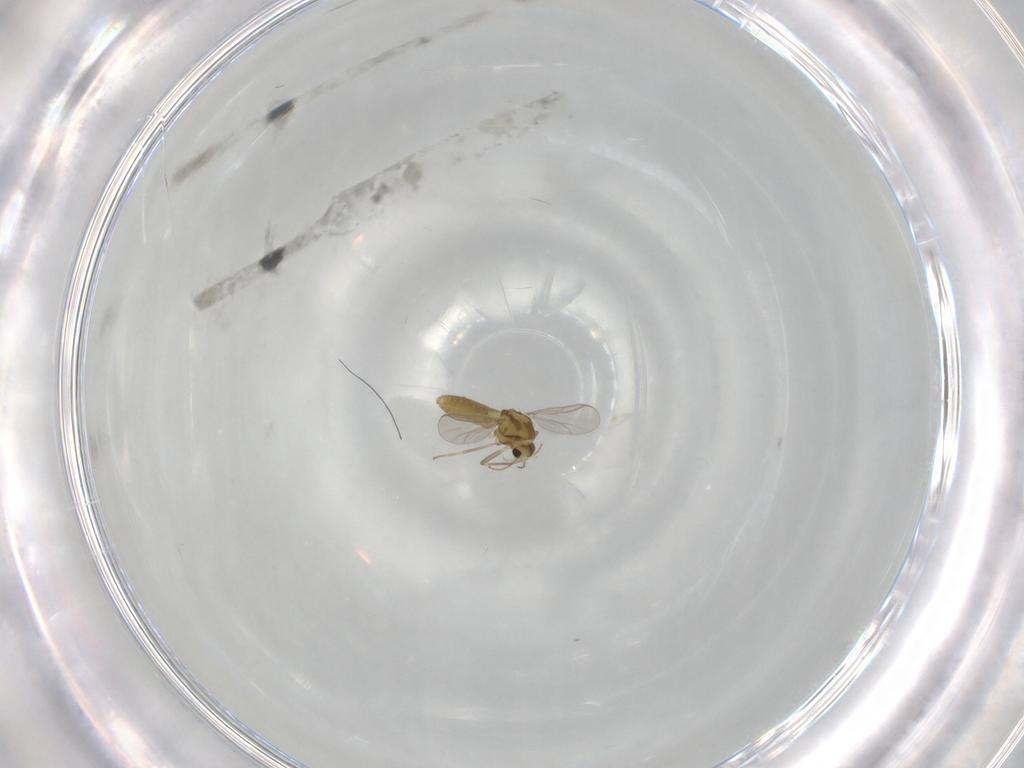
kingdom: Animalia
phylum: Arthropoda
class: Insecta
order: Diptera
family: Chironomidae
